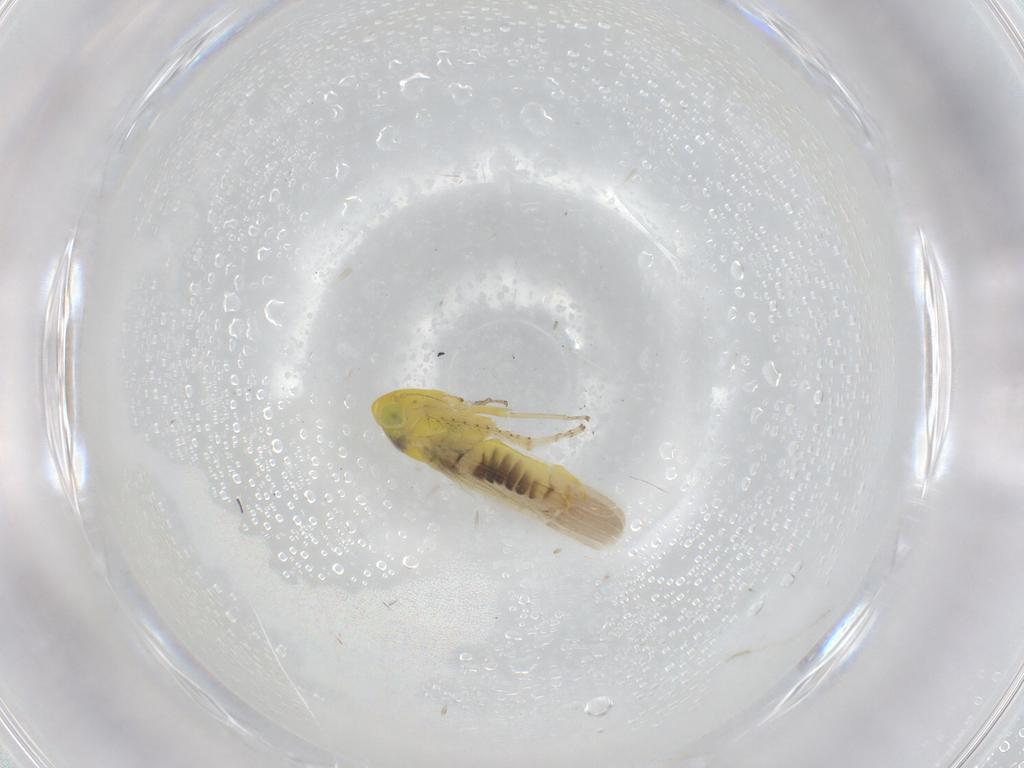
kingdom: Animalia
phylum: Arthropoda
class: Insecta
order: Hemiptera
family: Cicadellidae
